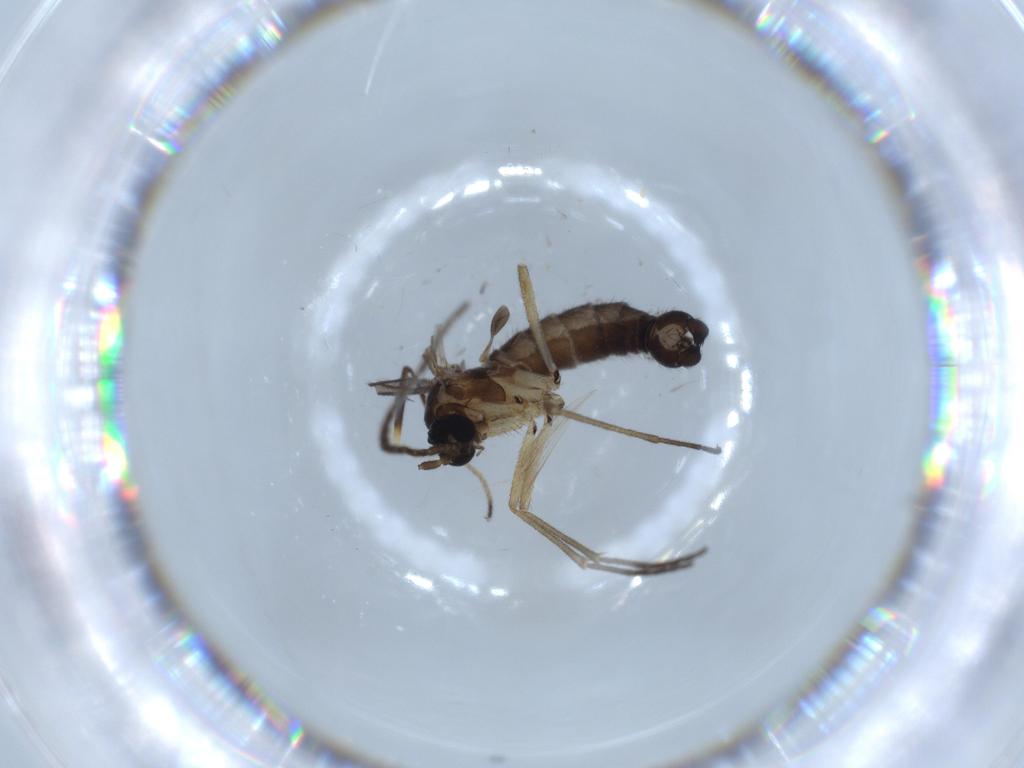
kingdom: Animalia
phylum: Arthropoda
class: Insecta
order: Diptera
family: Sciaridae
